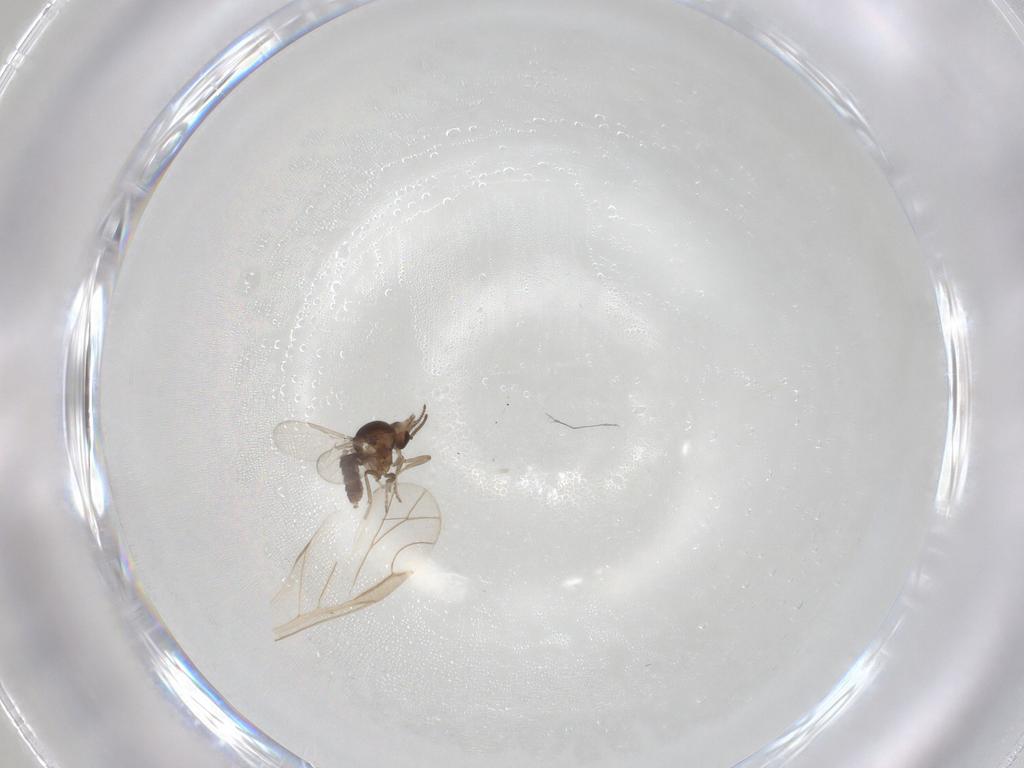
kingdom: Animalia
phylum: Arthropoda
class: Insecta
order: Diptera
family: Ceratopogonidae
